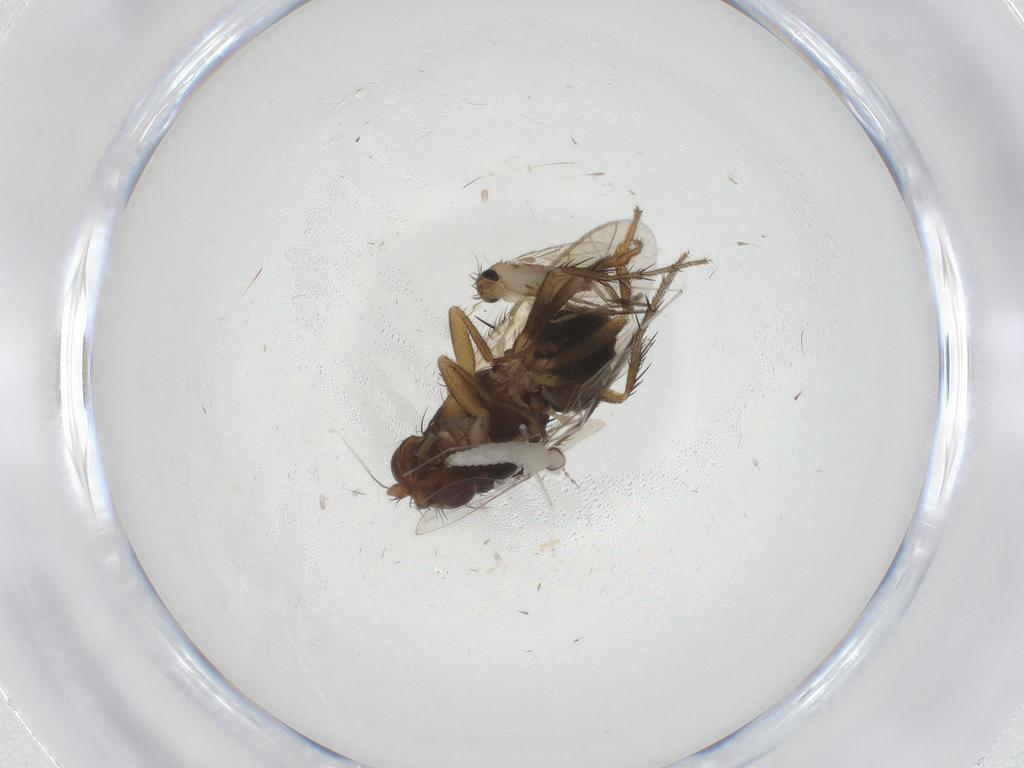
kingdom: Animalia
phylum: Arthropoda
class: Insecta
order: Diptera
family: Sphaeroceridae
